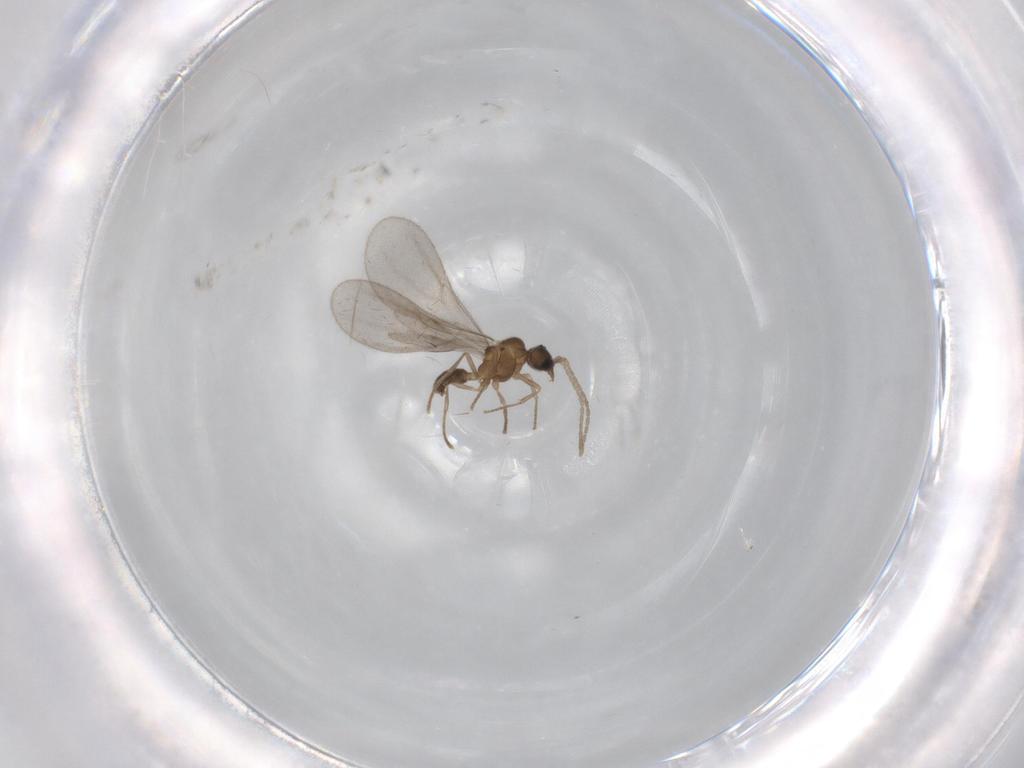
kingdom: Animalia
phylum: Arthropoda
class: Insecta
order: Hymenoptera
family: Formicidae
